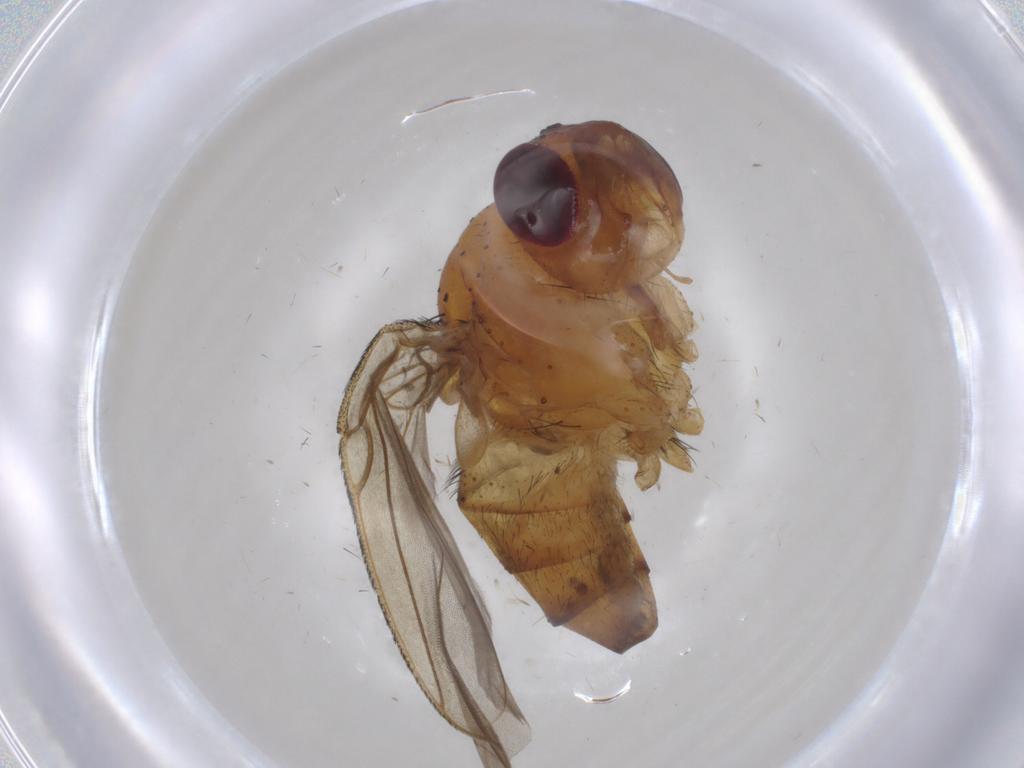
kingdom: Animalia
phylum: Arthropoda
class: Insecta
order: Diptera
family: Calliphoridae
